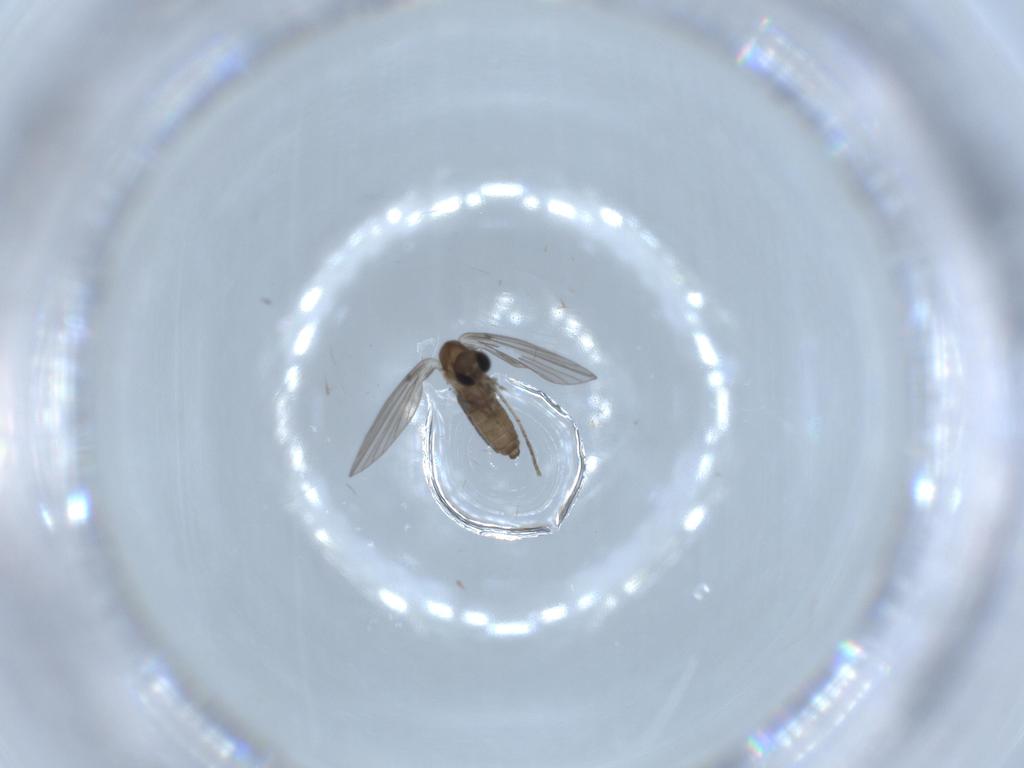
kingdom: Animalia
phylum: Arthropoda
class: Insecta
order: Diptera
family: Psychodidae
